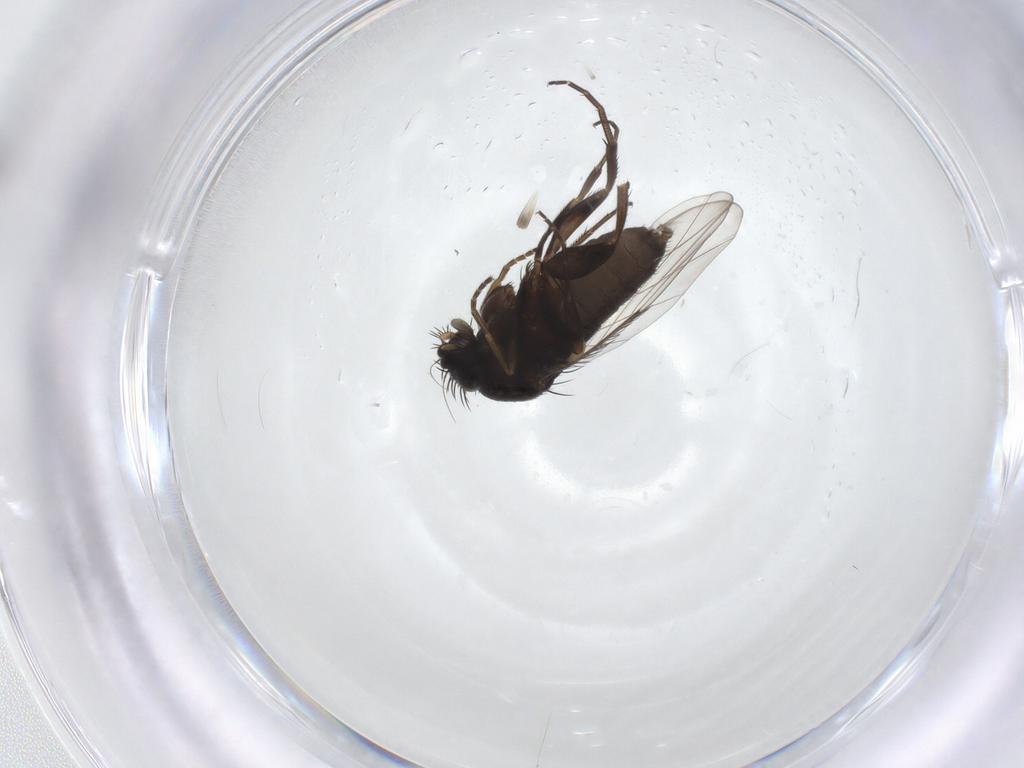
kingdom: Animalia
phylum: Arthropoda
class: Insecta
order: Diptera
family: Phoridae
